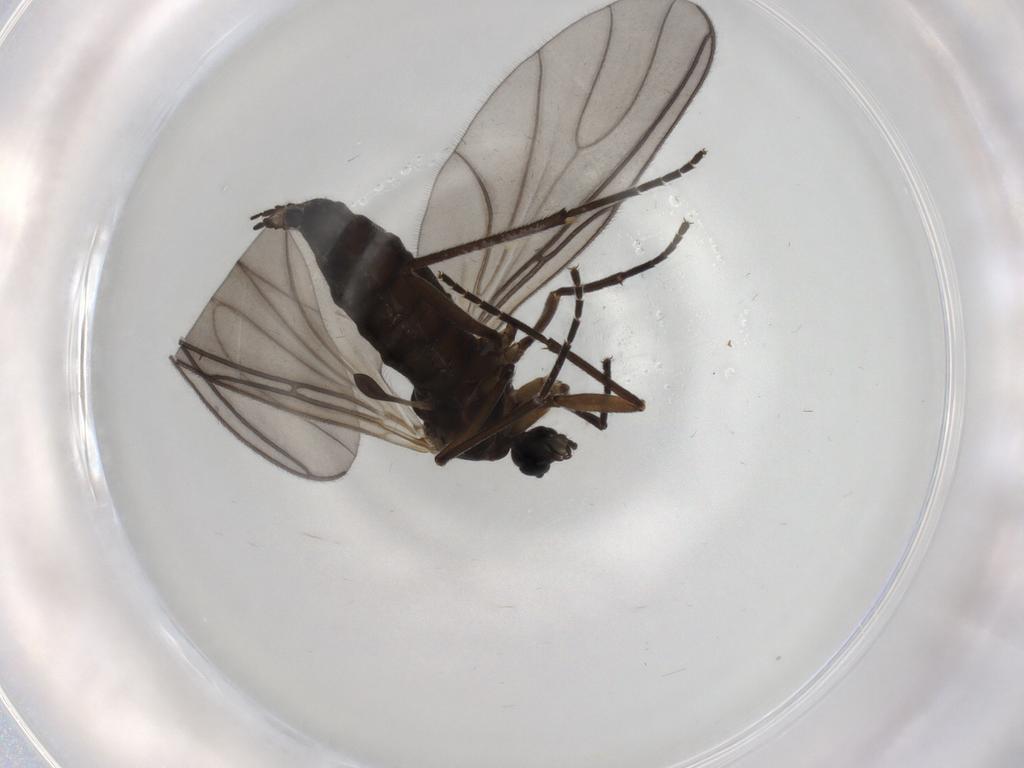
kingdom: Animalia
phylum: Arthropoda
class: Insecta
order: Diptera
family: Sciaridae
